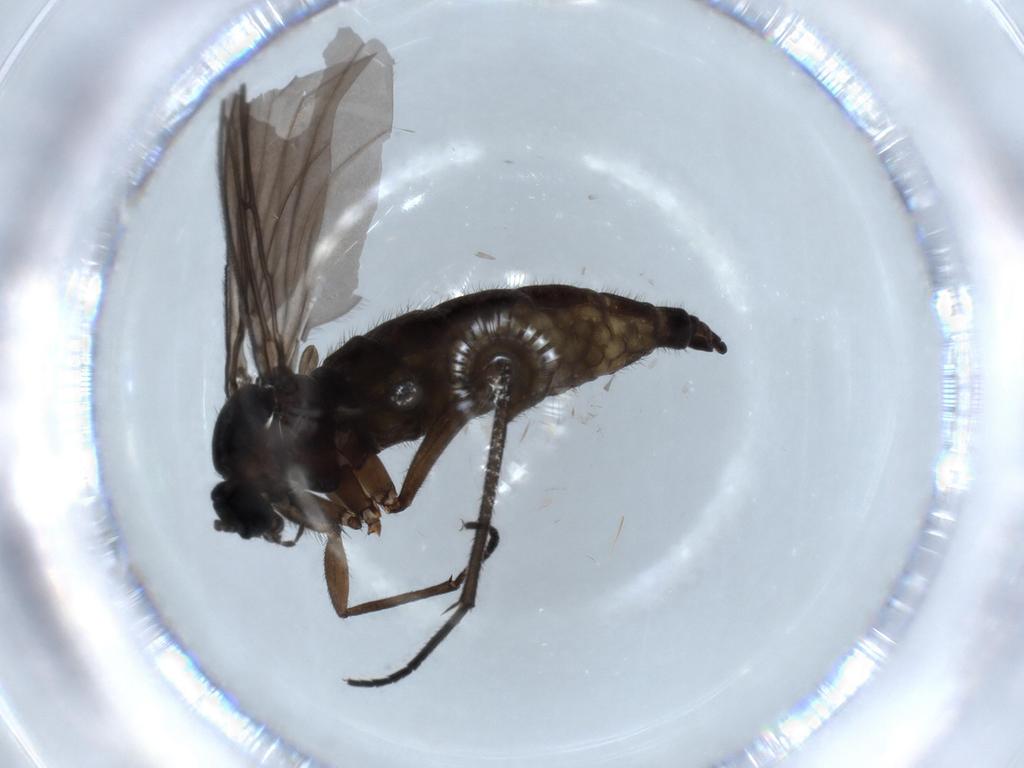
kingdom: Animalia
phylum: Arthropoda
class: Insecta
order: Diptera
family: Sciaridae
